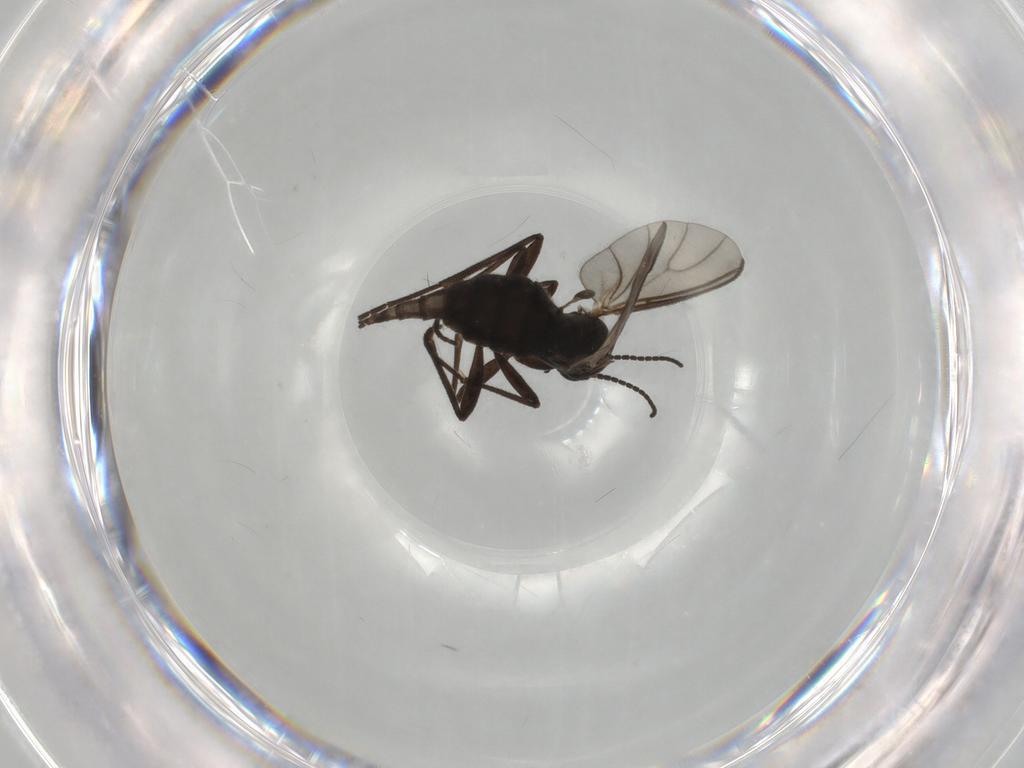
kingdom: Animalia
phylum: Arthropoda
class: Insecta
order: Diptera
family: Sciaridae
